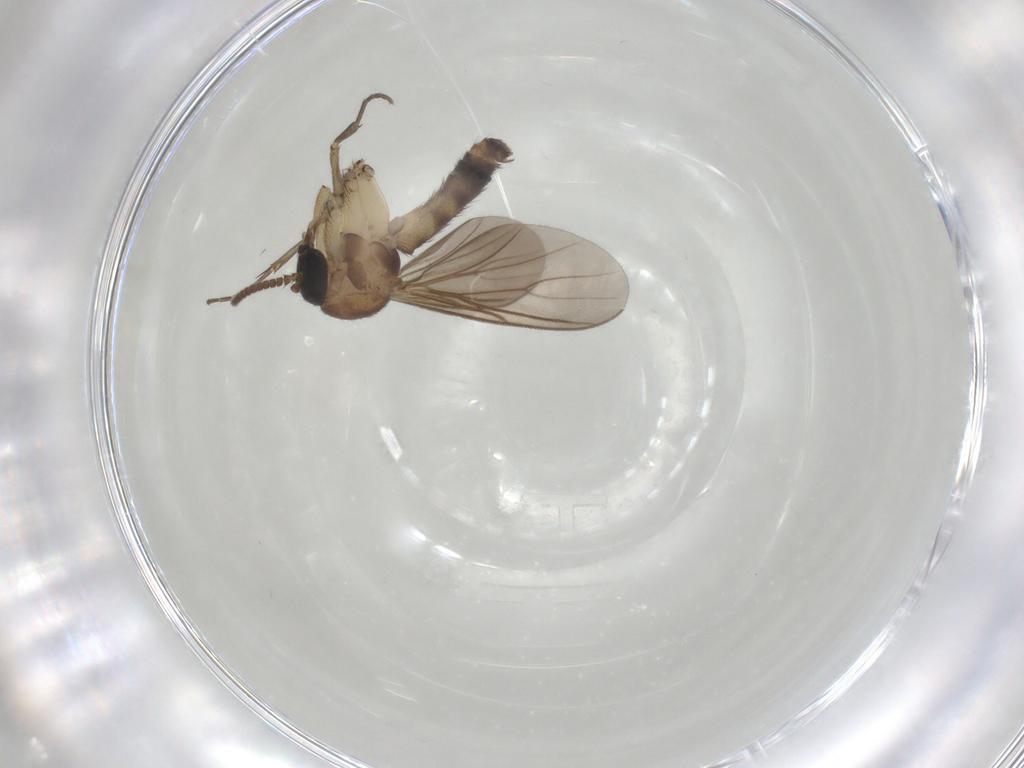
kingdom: Animalia
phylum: Arthropoda
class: Insecta
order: Diptera
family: Mycetophilidae
